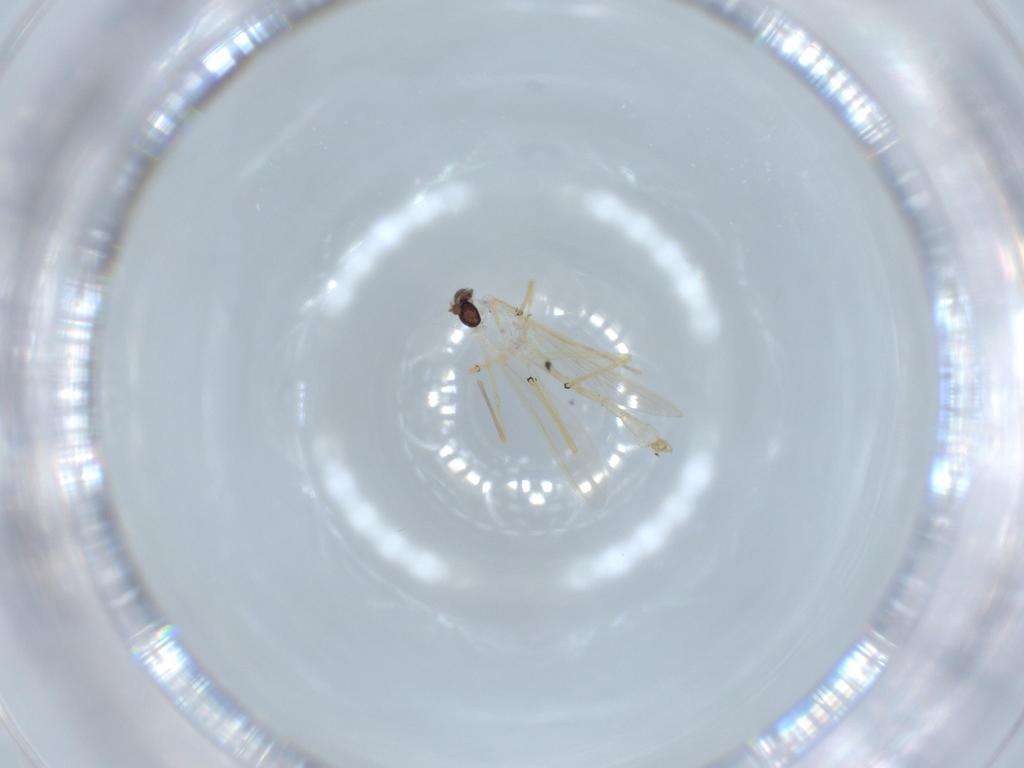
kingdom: Animalia
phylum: Arthropoda
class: Insecta
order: Diptera
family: Chironomidae
